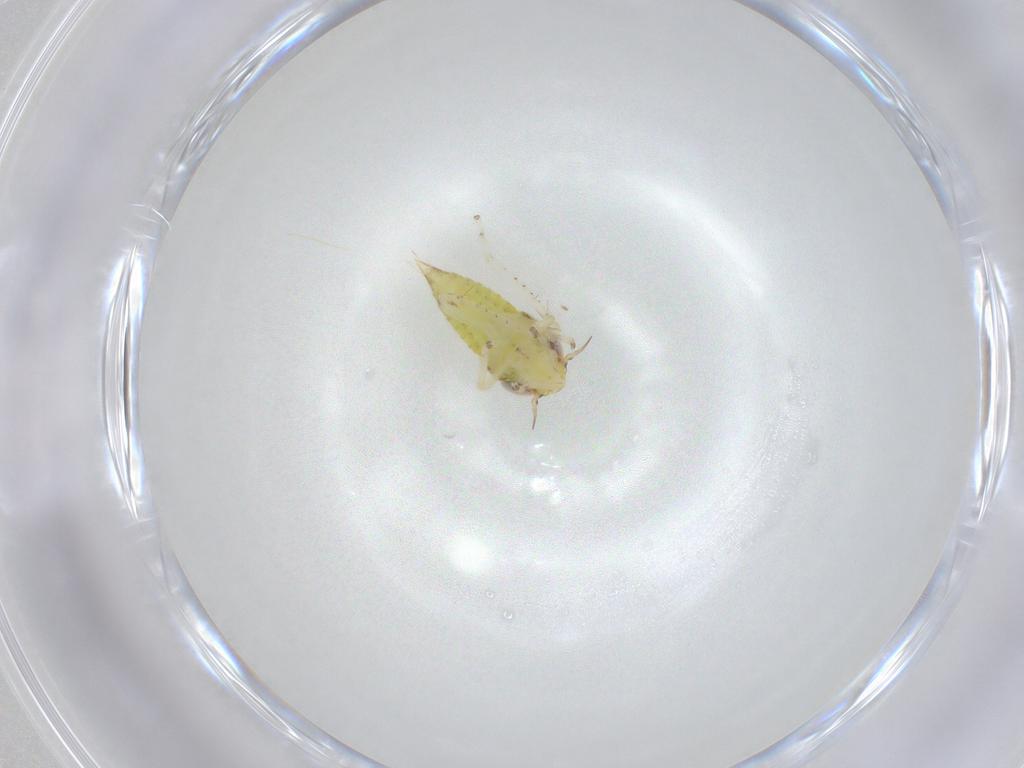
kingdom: Animalia
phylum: Arthropoda
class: Insecta
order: Hemiptera
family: Cicadellidae
